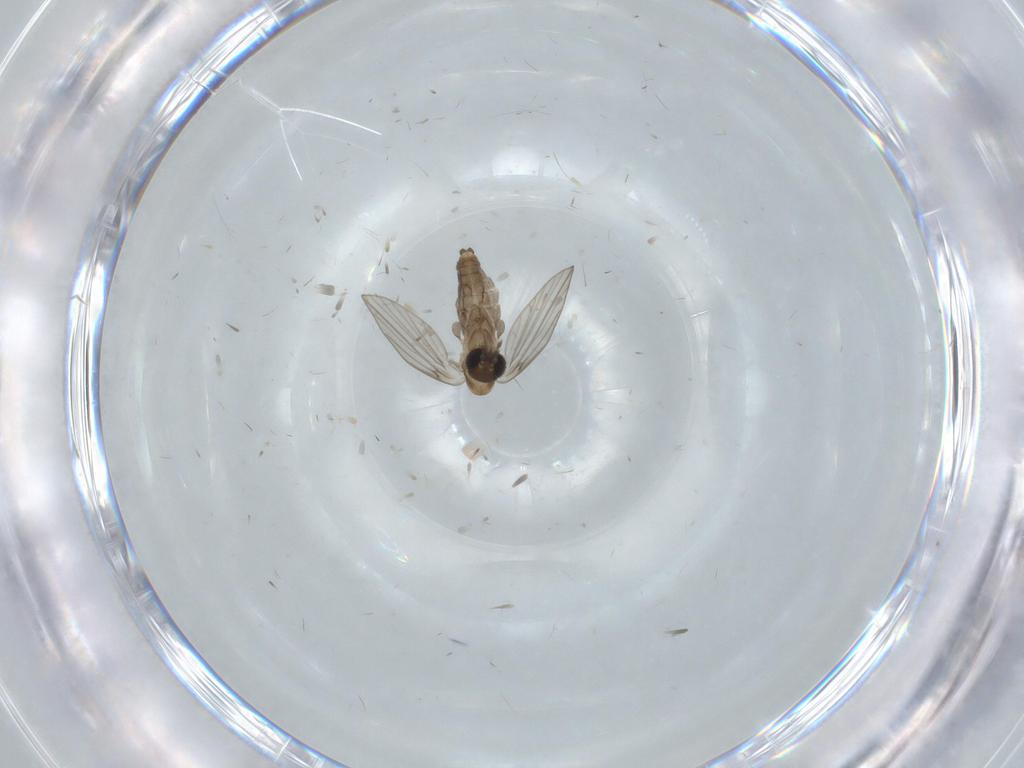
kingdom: Animalia
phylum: Arthropoda
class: Insecta
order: Diptera
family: Psychodidae
